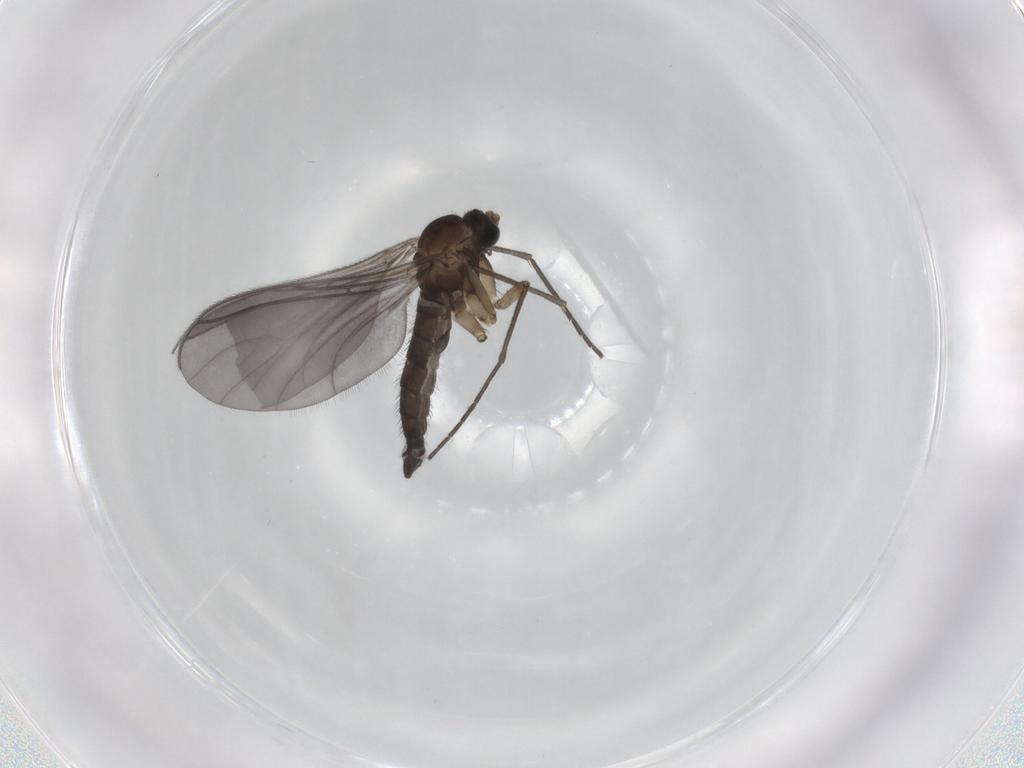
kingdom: Animalia
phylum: Arthropoda
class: Insecta
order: Diptera
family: Sciaridae
